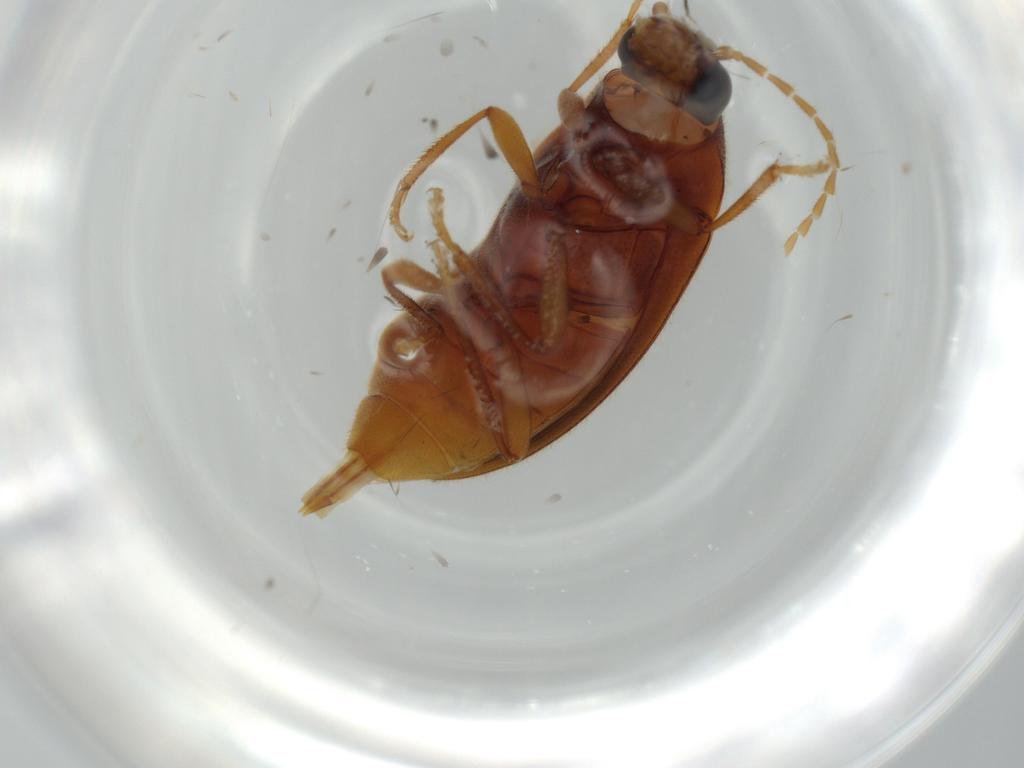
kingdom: Animalia
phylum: Arthropoda
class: Insecta
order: Coleoptera
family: Ptilodactylidae
